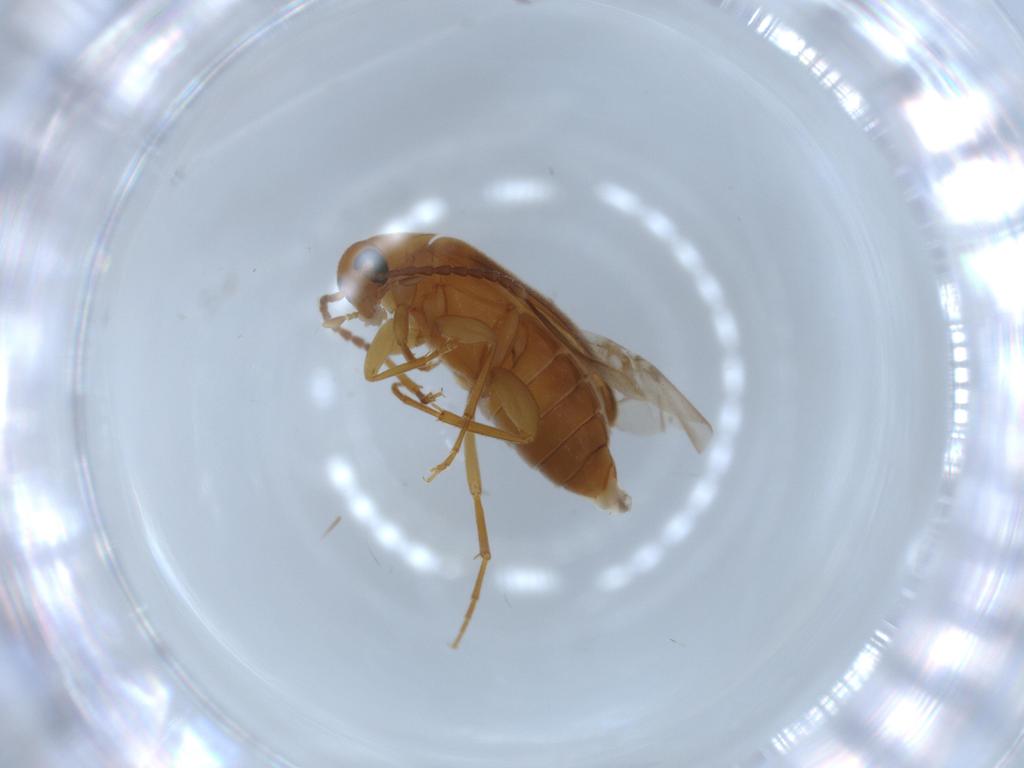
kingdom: Animalia
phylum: Arthropoda
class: Insecta
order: Coleoptera
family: Scraptiidae
